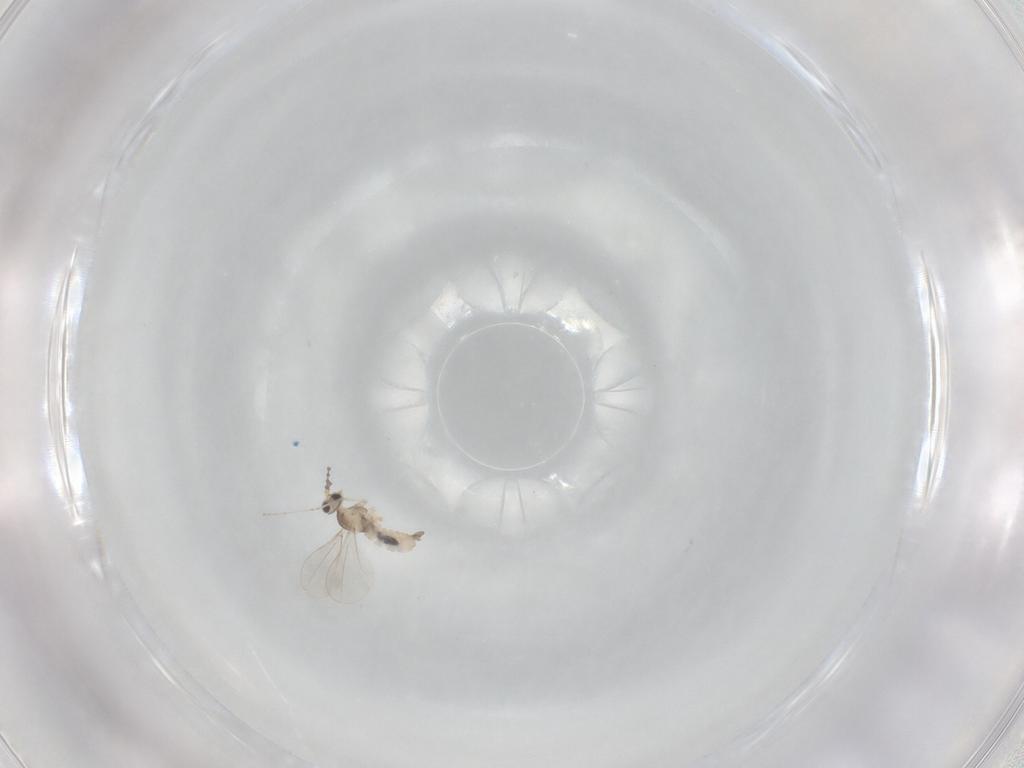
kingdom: Animalia
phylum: Arthropoda
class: Insecta
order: Diptera
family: Cecidomyiidae
